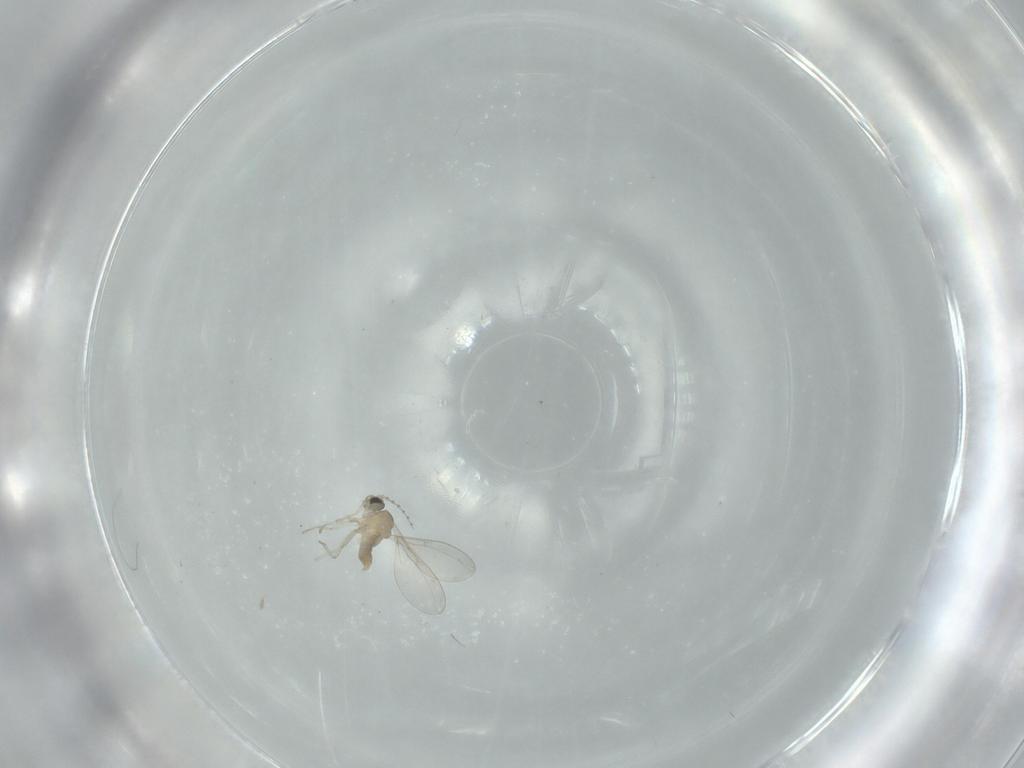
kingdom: Animalia
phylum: Arthropoda
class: Insecta
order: Diptera
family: Cecidomyiidae
